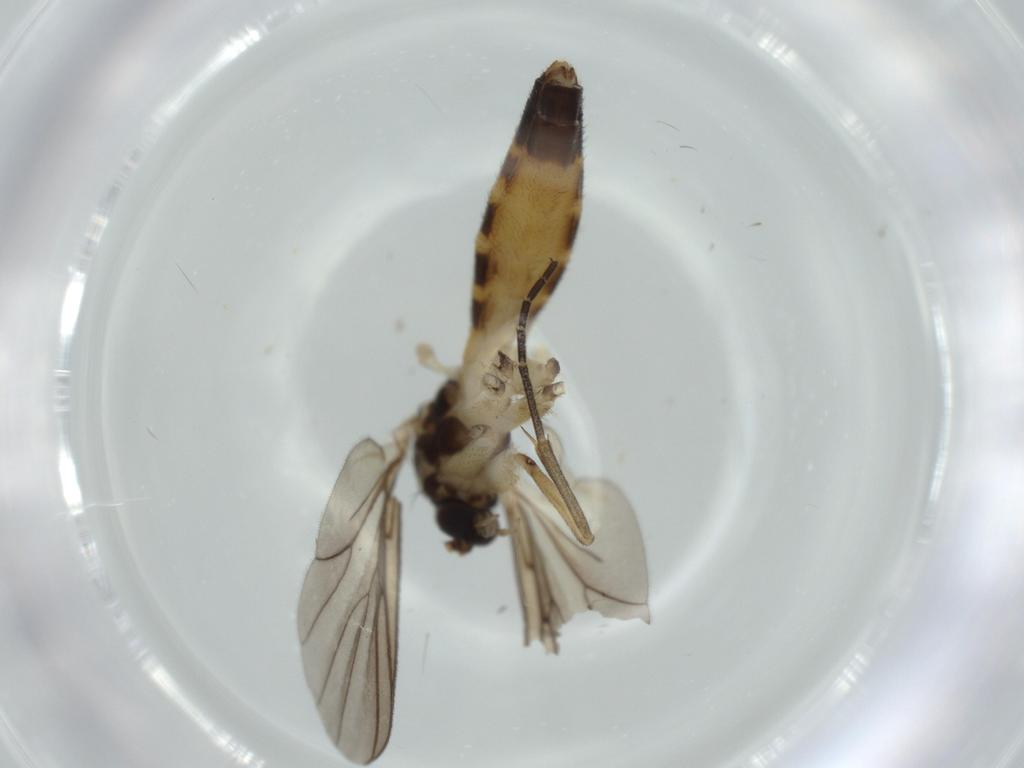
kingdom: Animalia
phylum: Arthropoda
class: Insecta
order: Diptera
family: Mycetophilidae
